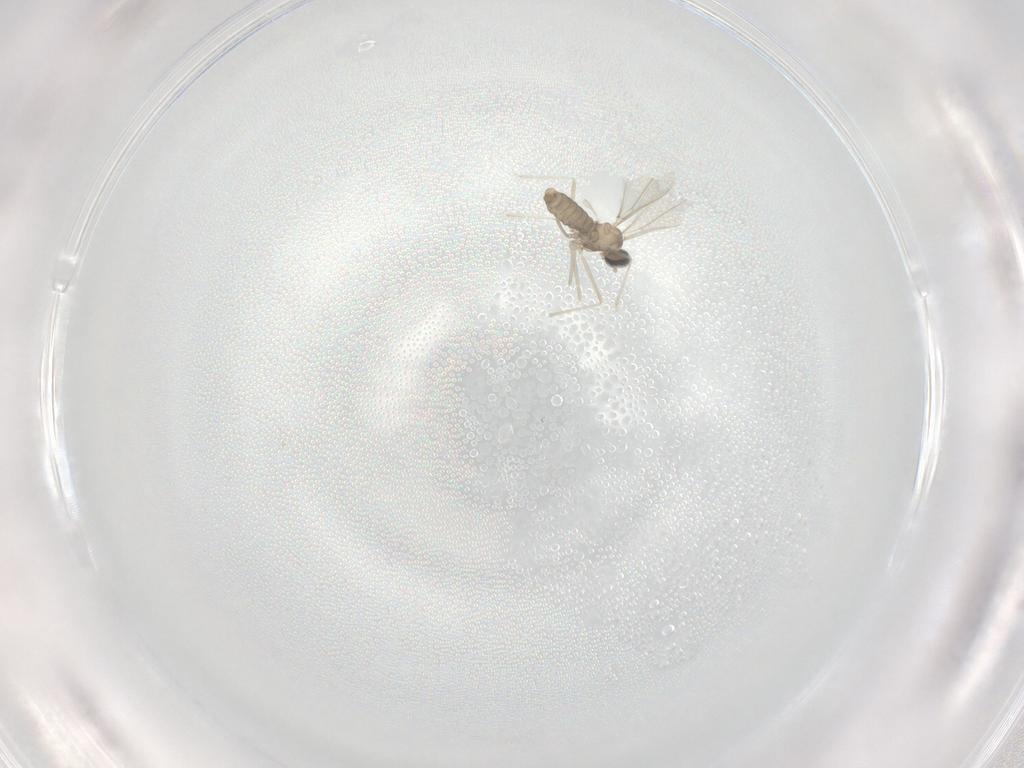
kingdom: Animalia
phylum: Arthropoda
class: Insecta
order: Diptera
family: Cecidomyiidae
